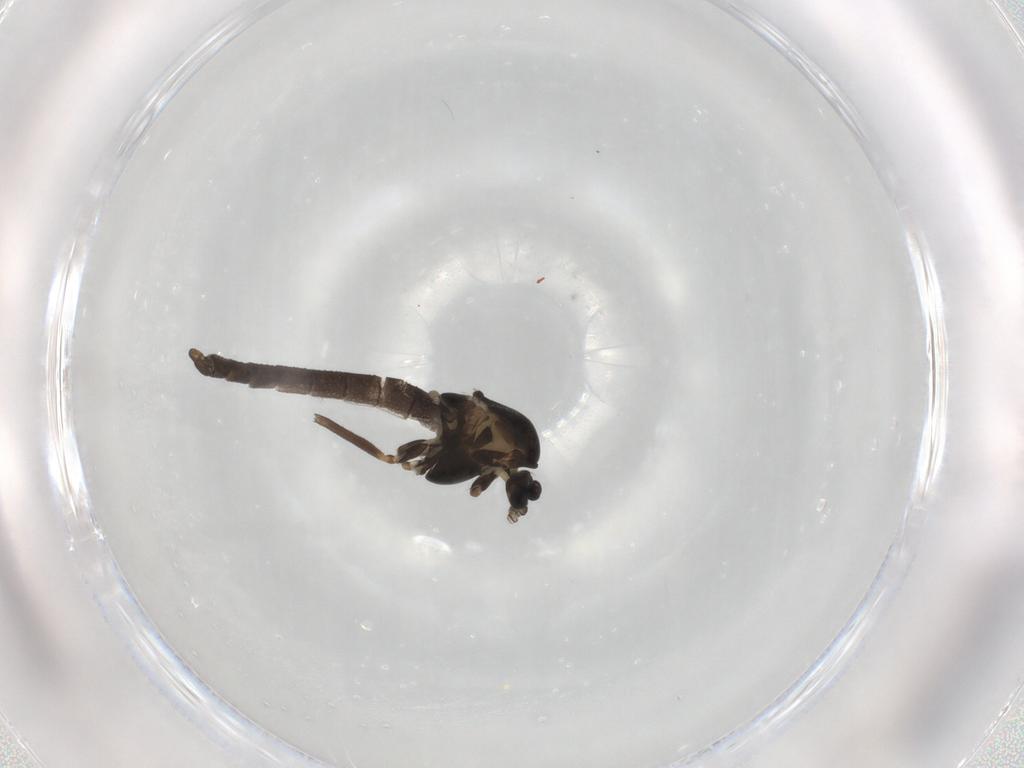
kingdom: Animalia
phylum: Arthropoda
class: Insecta
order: Diptera
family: Chironomidae
